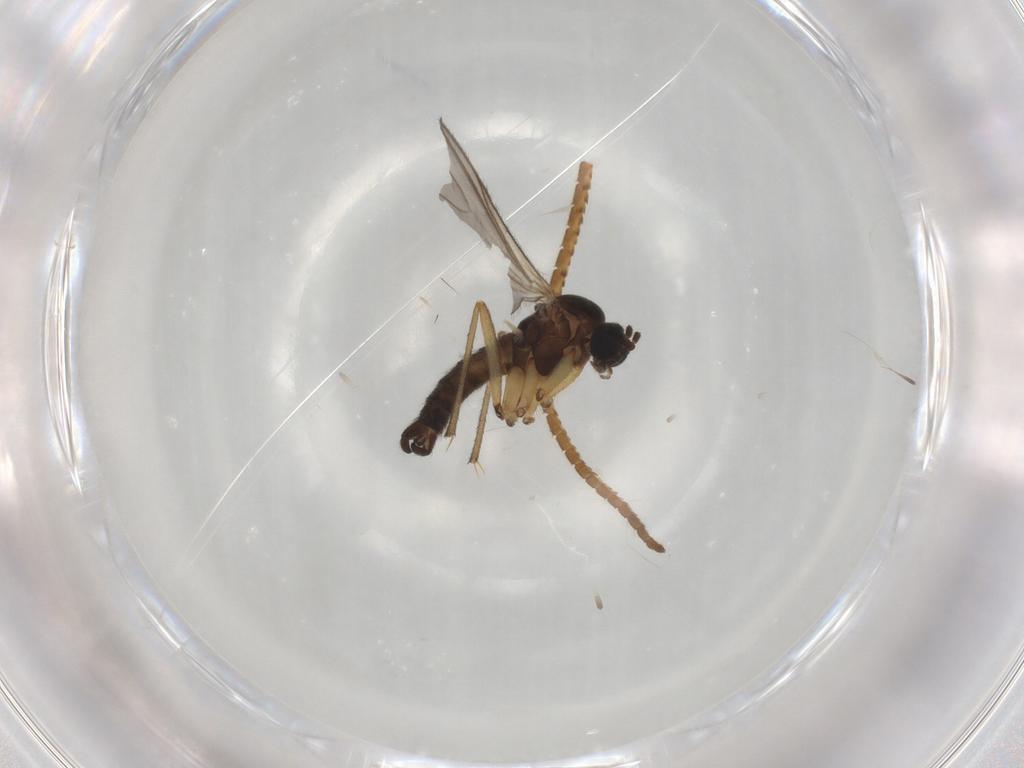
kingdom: Animalia
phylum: Arthropoda
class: Insecta
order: Diptera
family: Sciaridae
